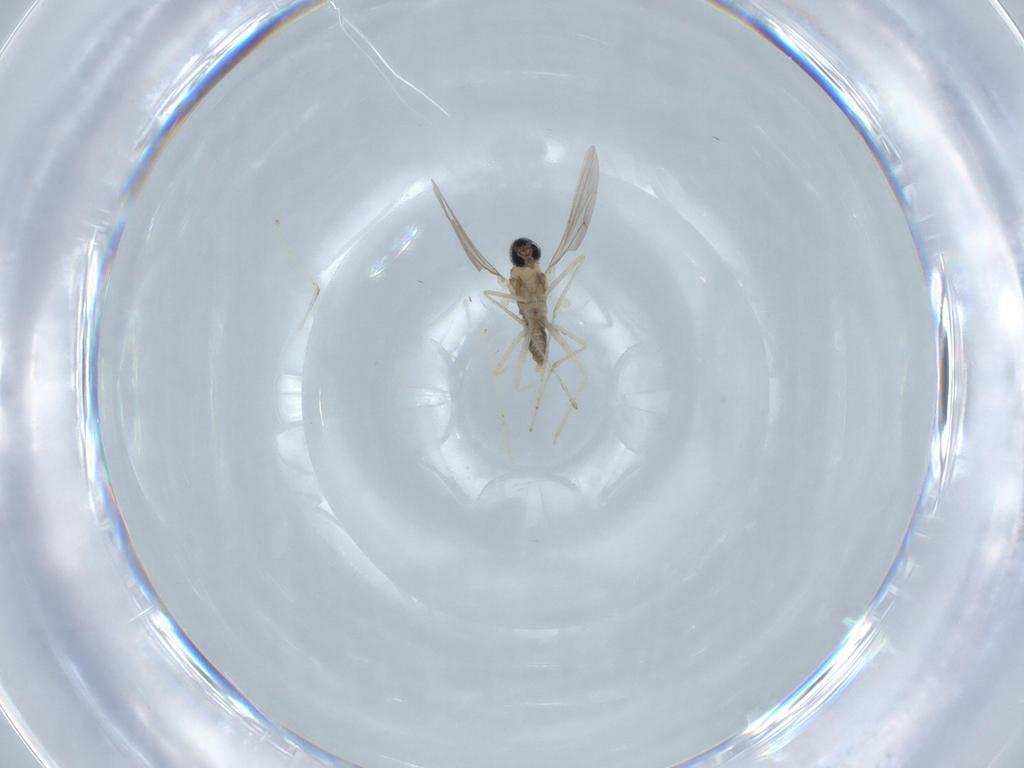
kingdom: Animalia
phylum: Arthropoda
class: Insecta
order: Diptera
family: Cecidomyiidae
